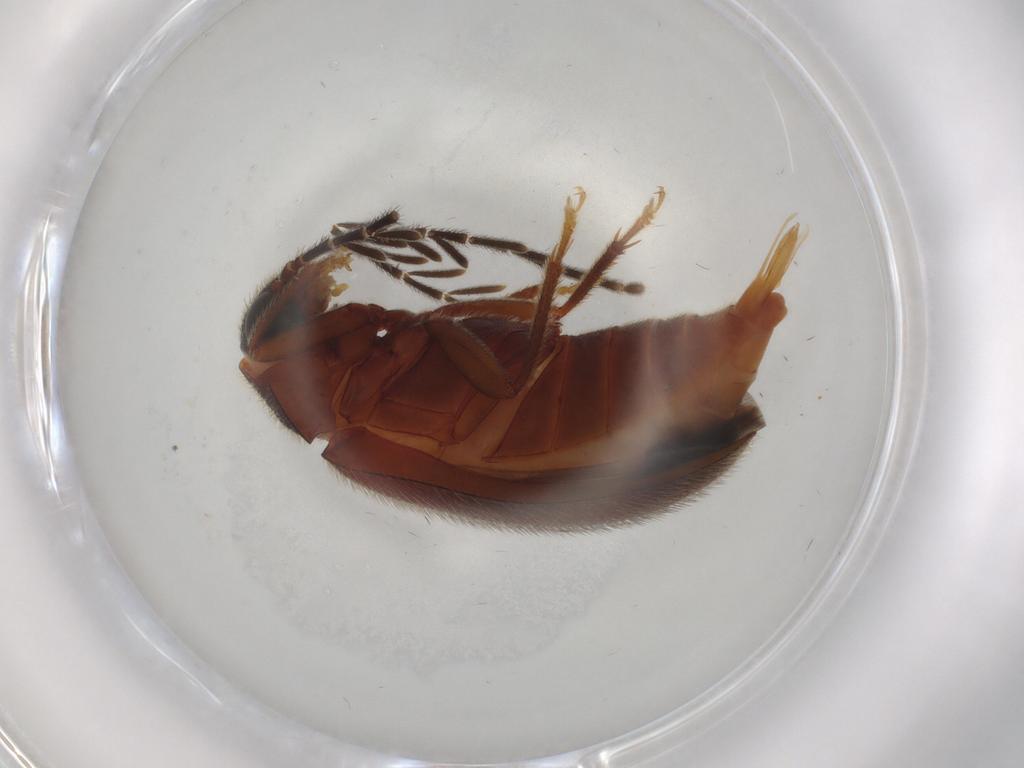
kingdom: Animalia
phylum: Arthropoda
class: Insecta
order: Coleoptera
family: Ptilodactylidae
